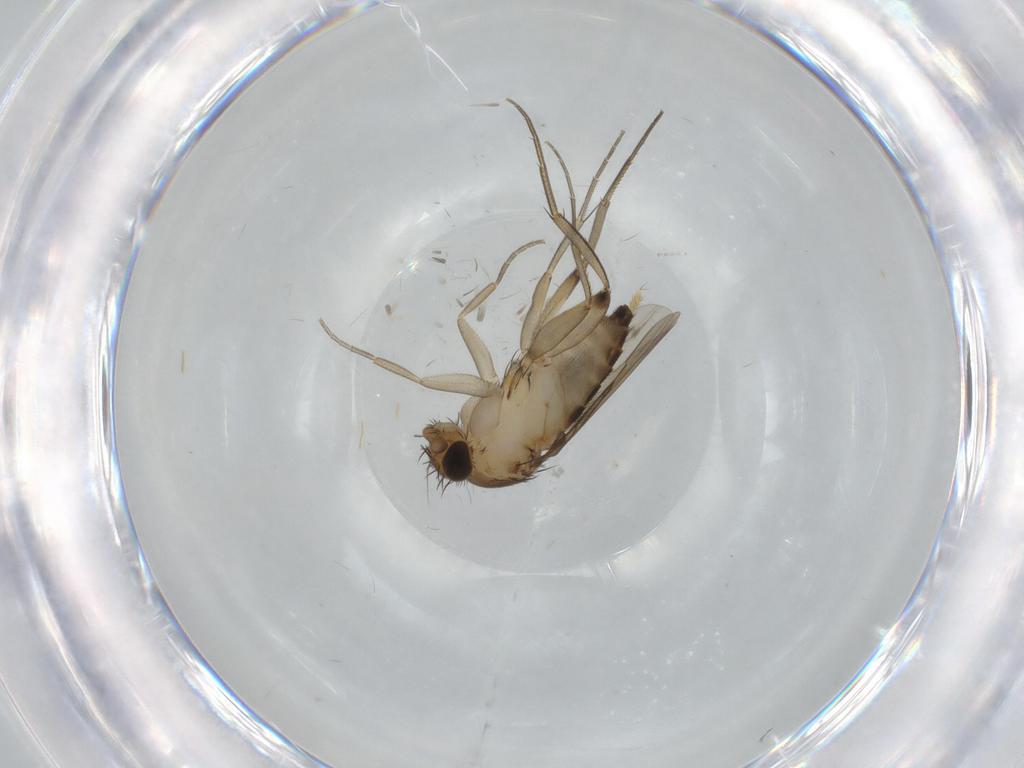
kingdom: Animalia
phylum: Arthropoda
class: Insecta
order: Diptera
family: Phoridae
